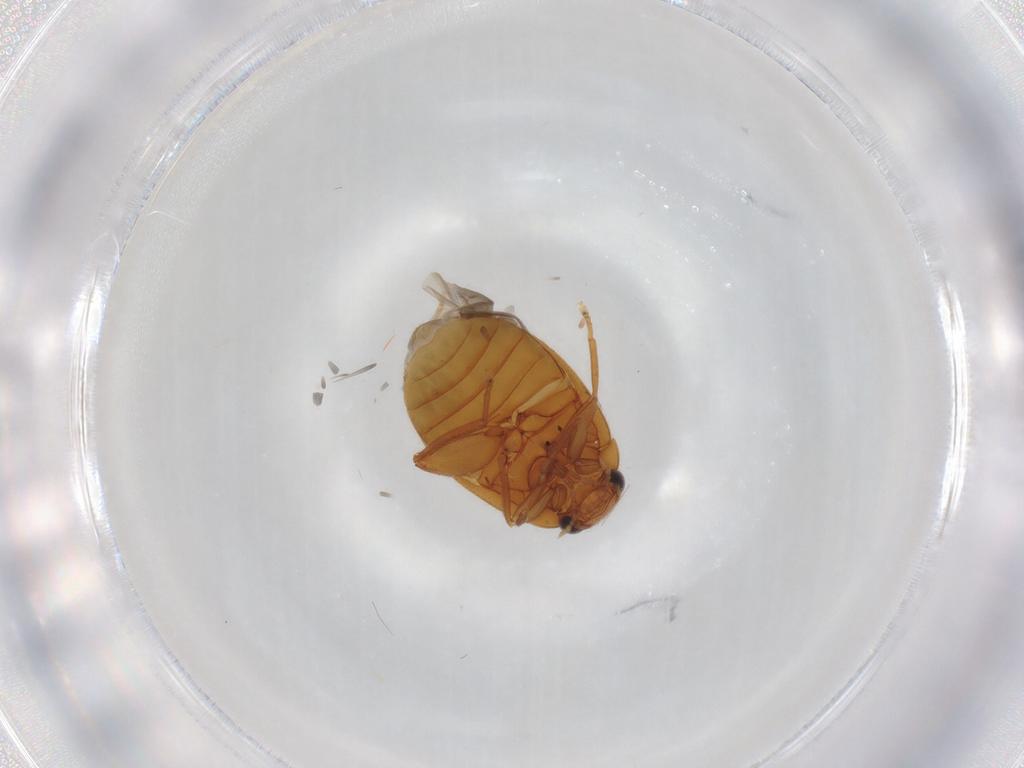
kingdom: Animalia
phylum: Arthropoda
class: Insecta
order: Coleoptera
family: Scirtidae
